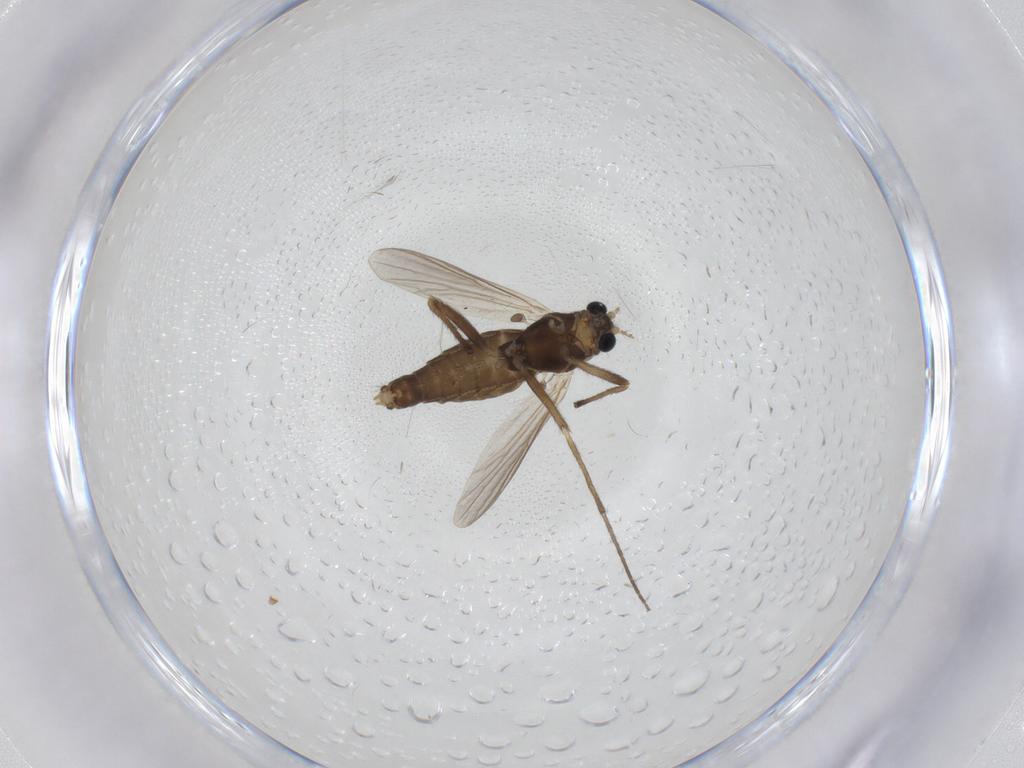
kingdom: Animalia
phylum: Arthropoda
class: Insecta
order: Diptera
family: Chironomidae
